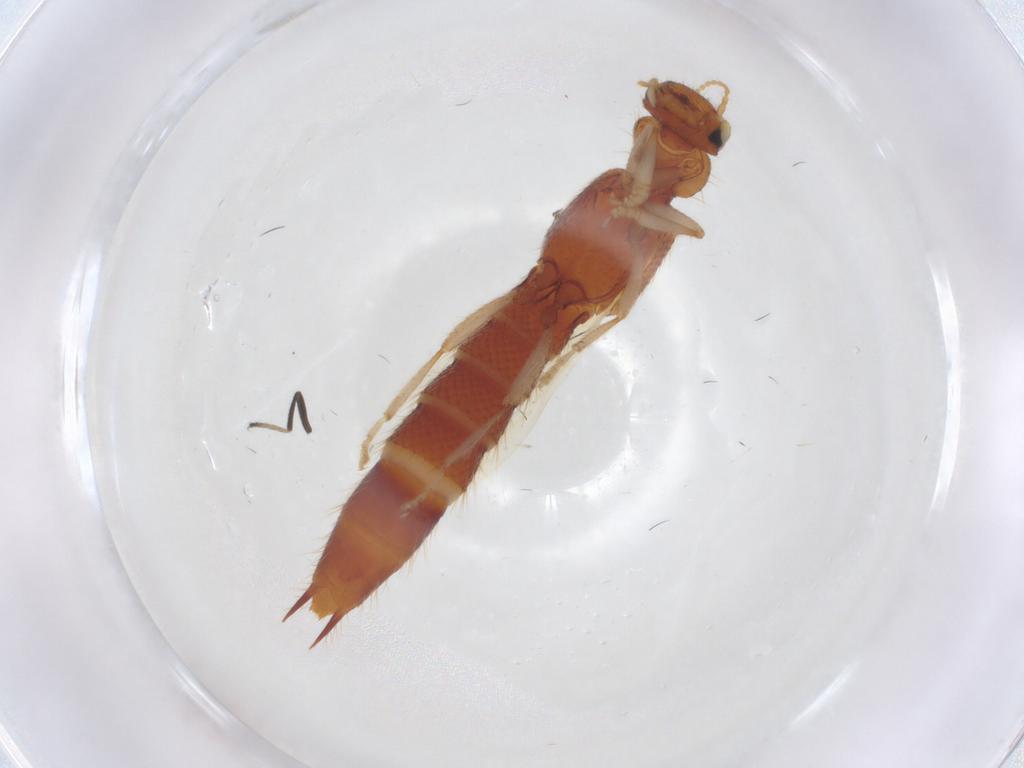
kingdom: Animalia
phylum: Arthropoda
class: Insecta
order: Coleoptera
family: Staphylinidae
